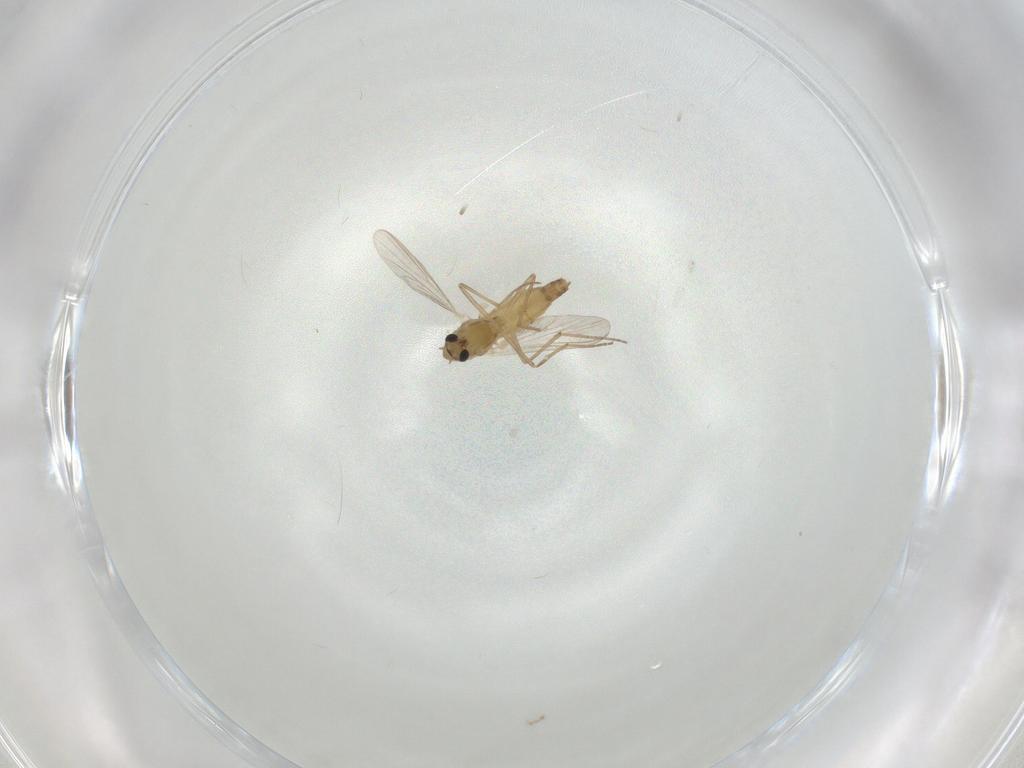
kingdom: Animalia
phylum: Arthropoda
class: Insecta
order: Diptera
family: Chironomidae
